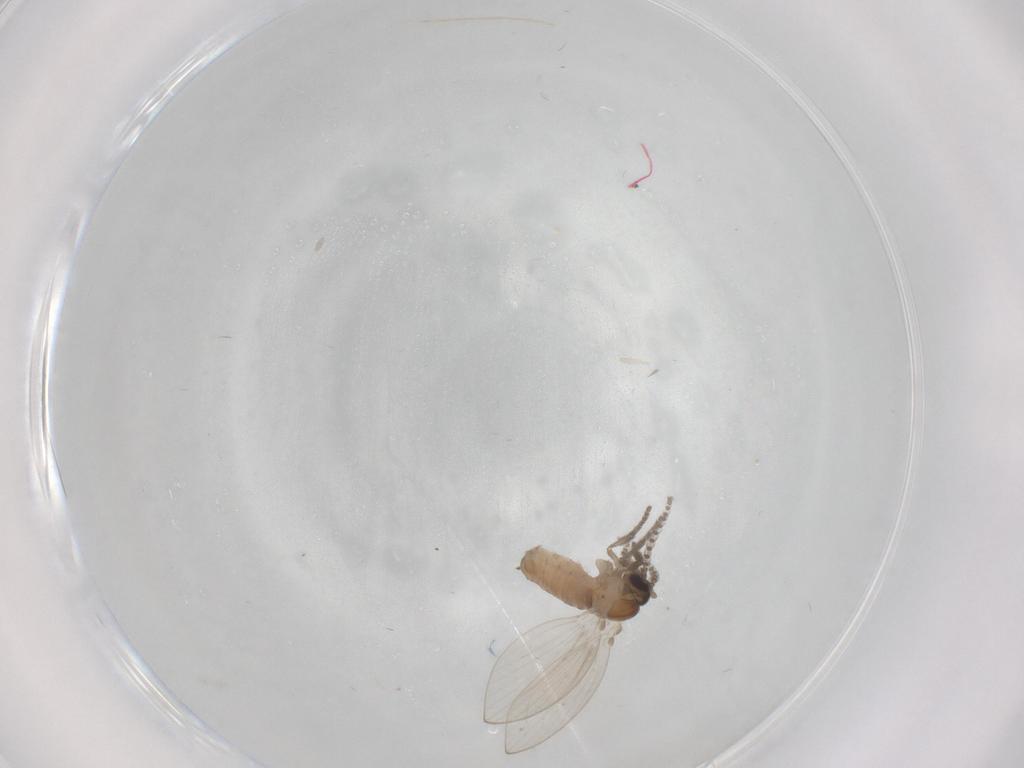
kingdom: Animalia
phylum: Arthropoda
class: Insecta
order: Diptera
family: Psychodidae
